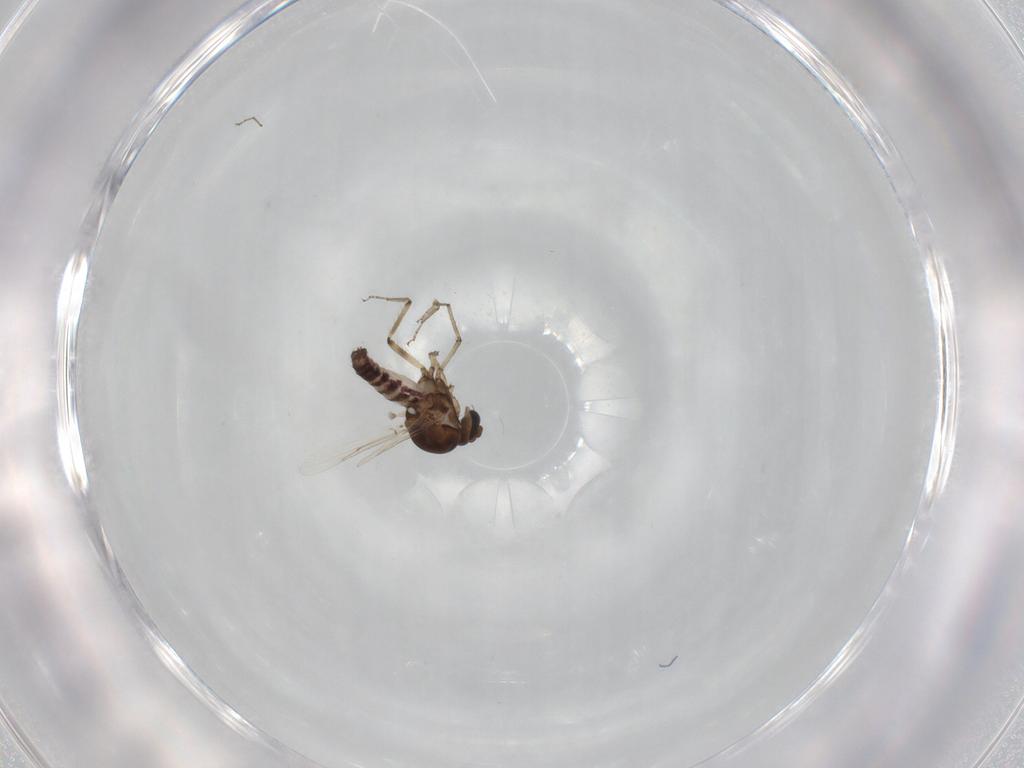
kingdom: Animalia
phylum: Arthropoda
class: Insecta
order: Diptera
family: Ceratopogonidae
